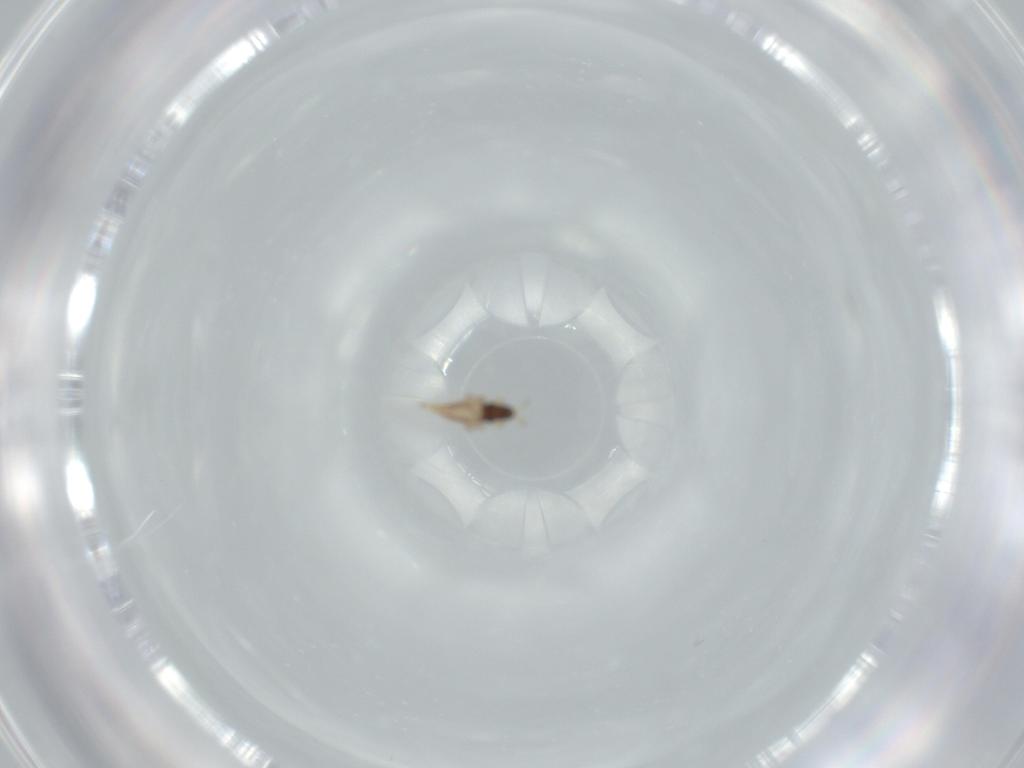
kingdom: Animalia
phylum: Arthropoda
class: Insecta
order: Thysanoptera
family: Phlaeothripidae
